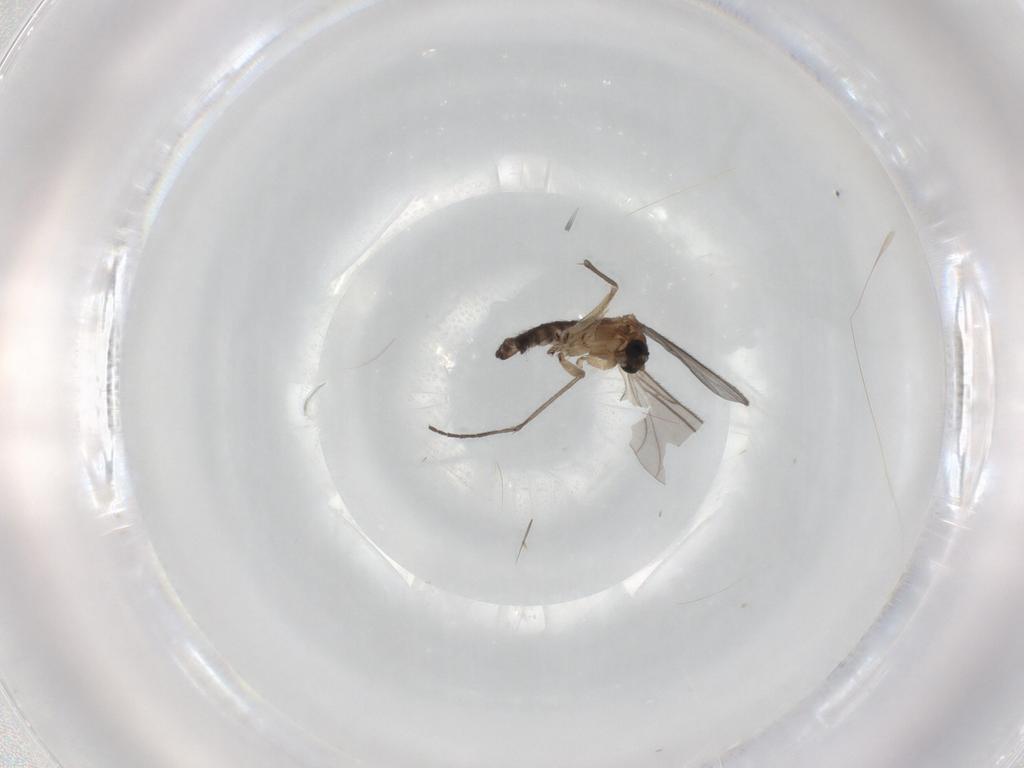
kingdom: Animalia
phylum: Arthropoda
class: Insecta
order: Diptera
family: Sciaridae
